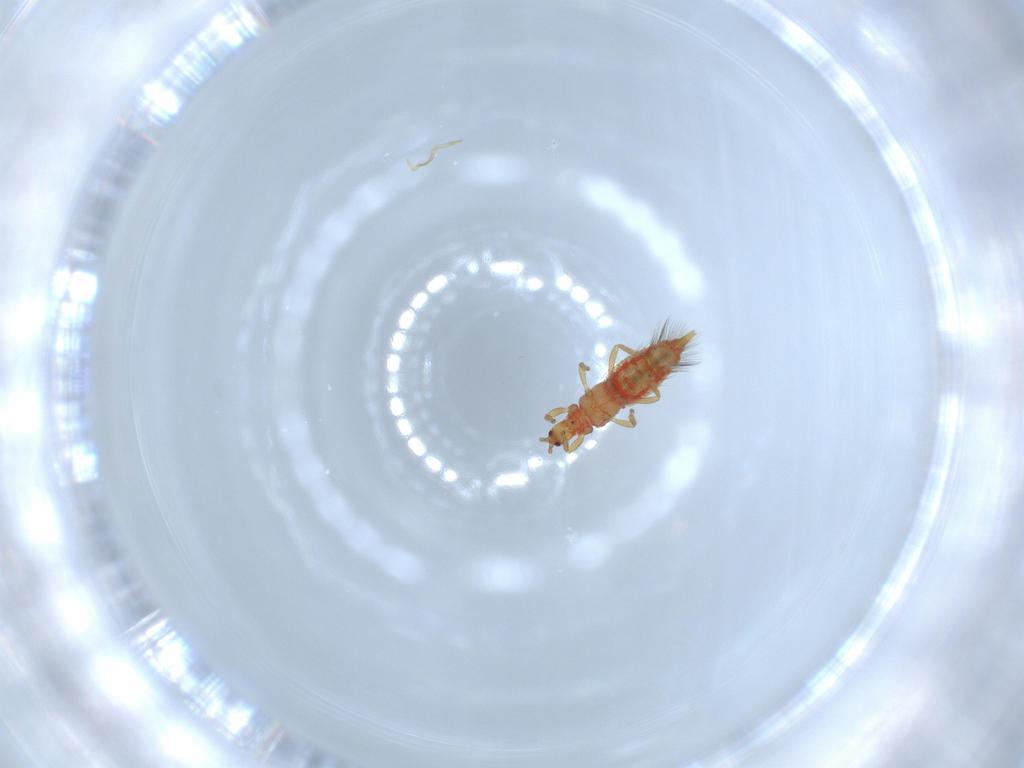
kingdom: Animalia
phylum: Arthropoda
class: Insecta
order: Thysanoptera
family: Phlaeothripidae
